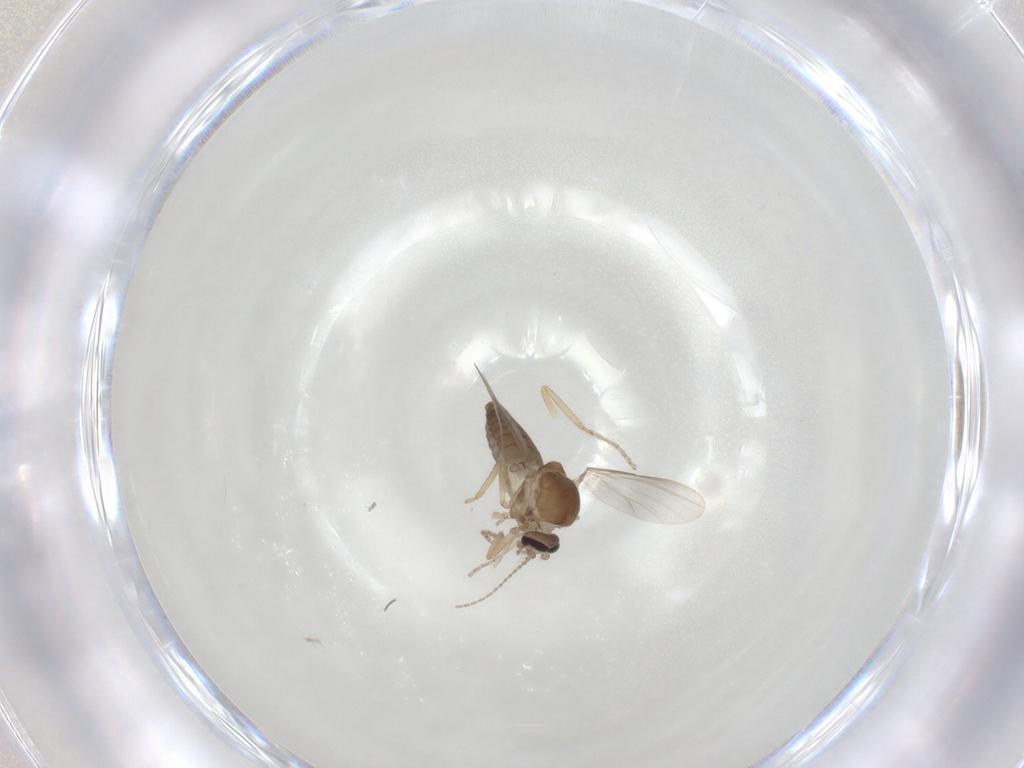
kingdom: Animalia
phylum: Arthropoda
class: Insecta
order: Diptera
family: Ceratopogonidae
